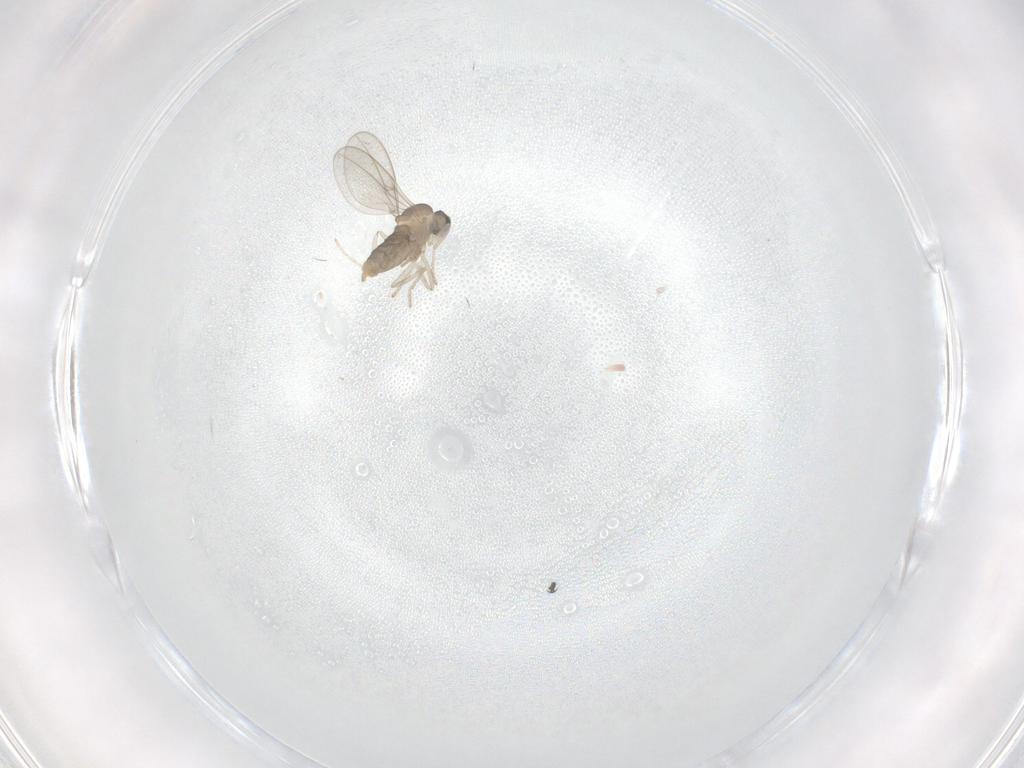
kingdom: Animalia
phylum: Arthropoda
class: Insecta
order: Diptera
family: Cecidomyiidae
